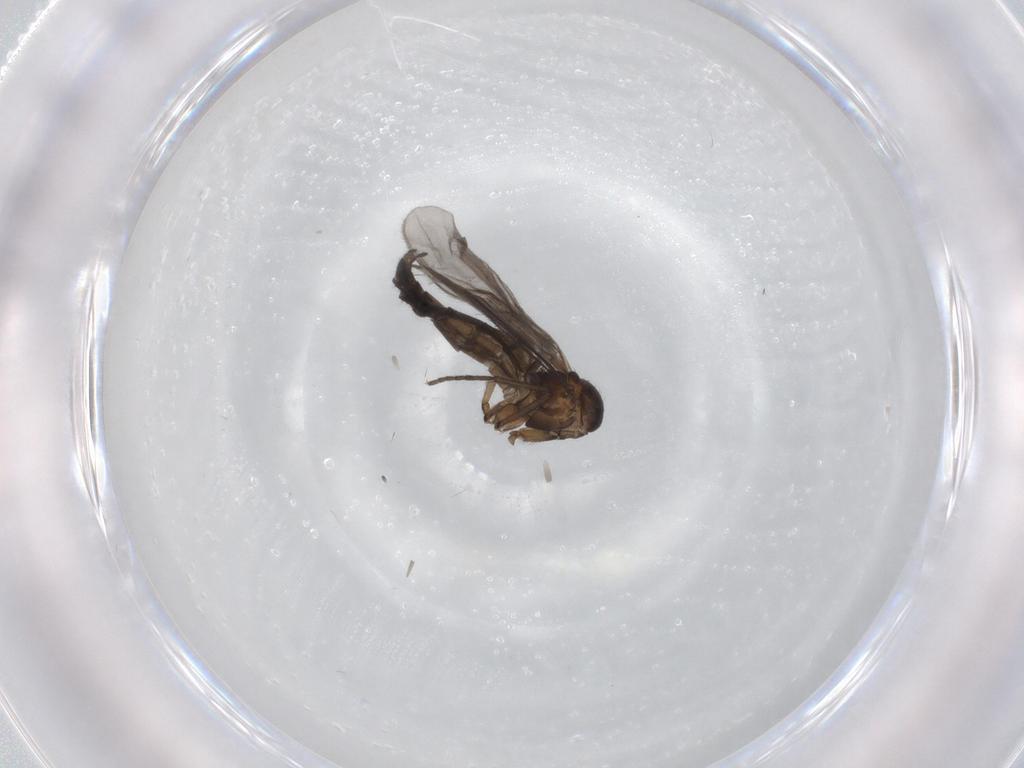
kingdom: Animalia
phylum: Arthropoda
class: Insecta
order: Diptera
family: Sciaridae
